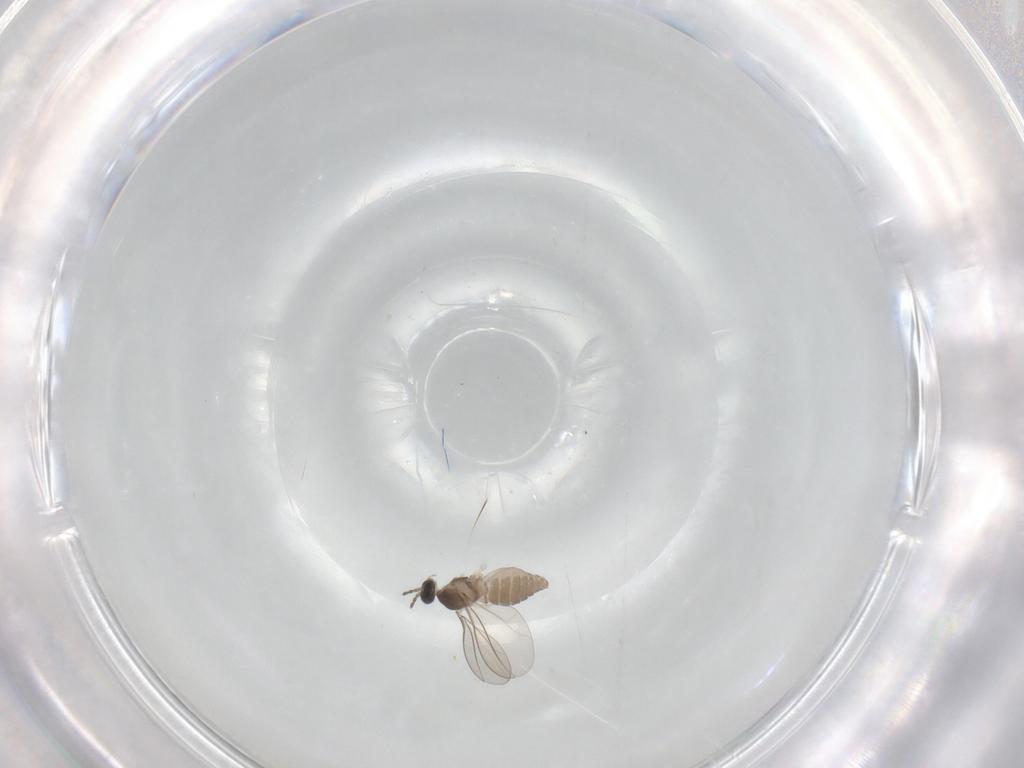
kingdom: Animalia
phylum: Arthropoda
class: Insecta
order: Diptera
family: Cecidomyiidae
